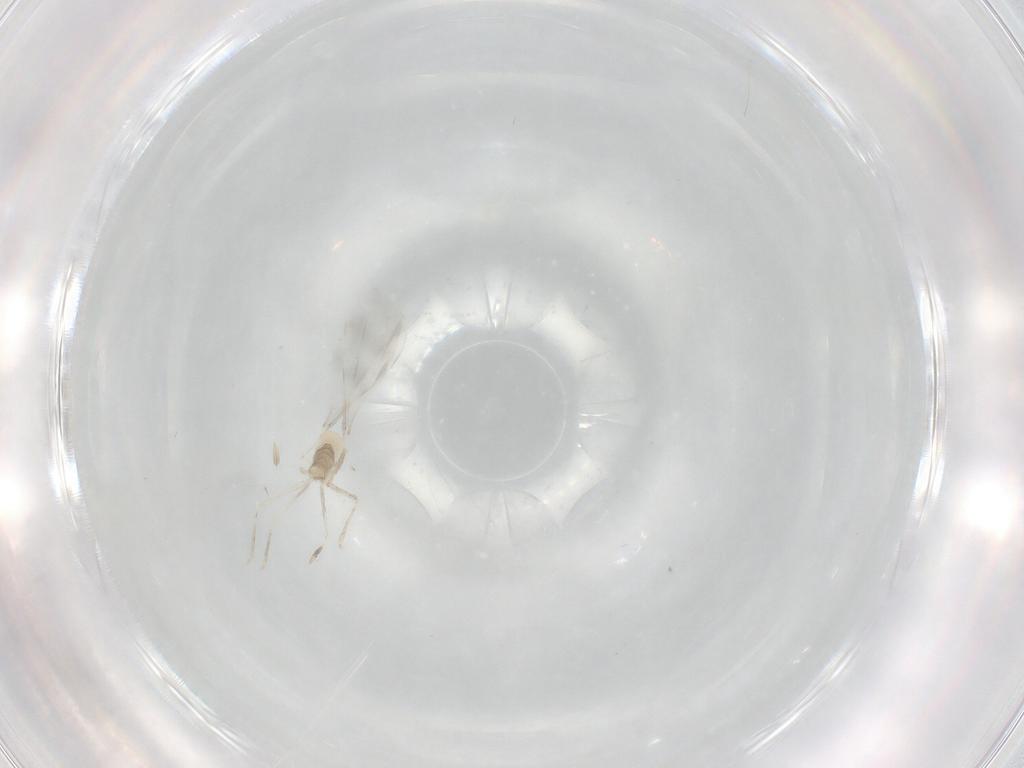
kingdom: Animalia
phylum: Arthropoda
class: Insecta
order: Diptera
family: Cecidomyiidae
